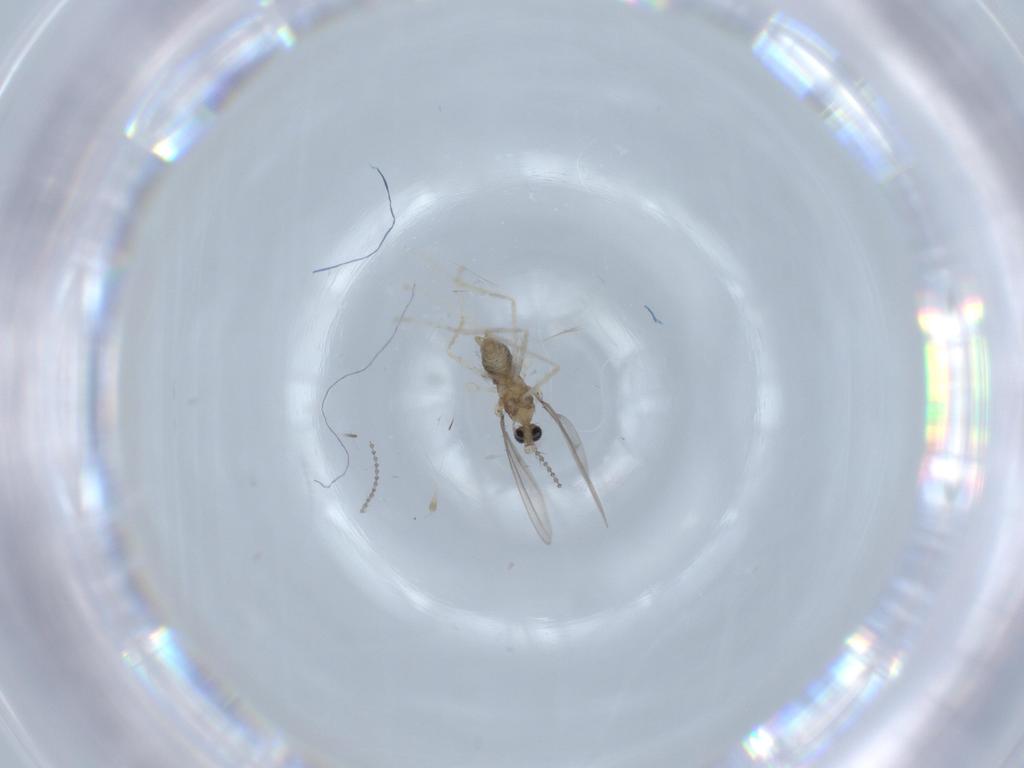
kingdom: Animalia
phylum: Arthropoda
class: Insecta
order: Diptera
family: Cecidomyiidae
